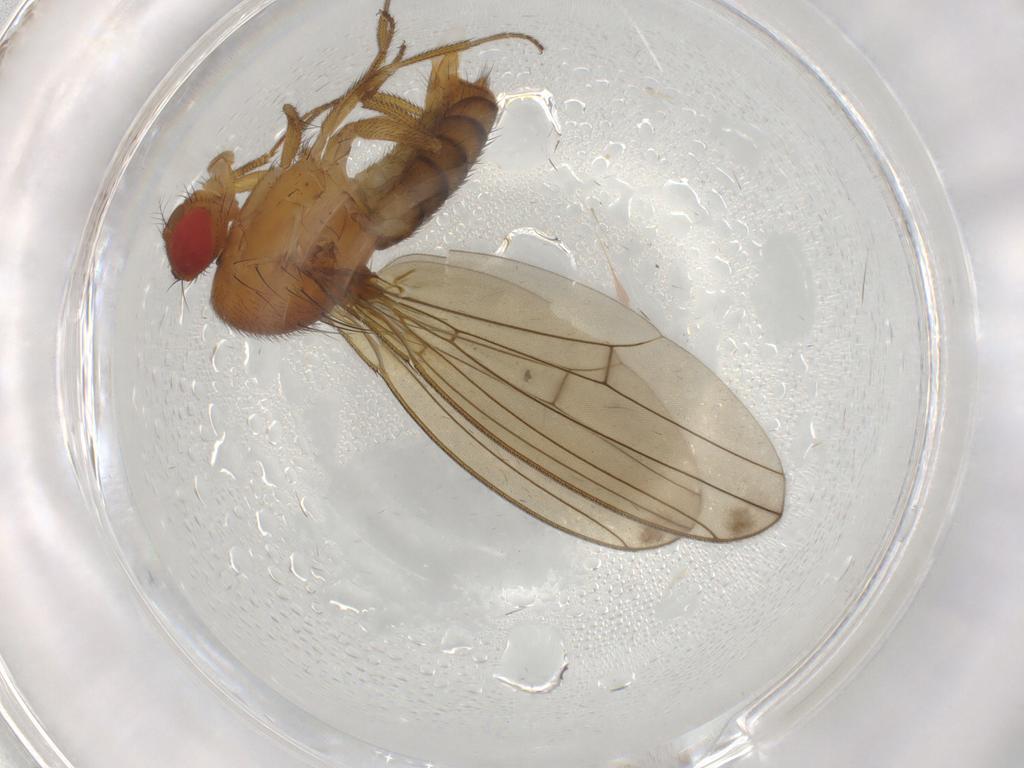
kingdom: Animalia
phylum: Arthropoda
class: Insecta
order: Diptera
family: Drosophilidae
